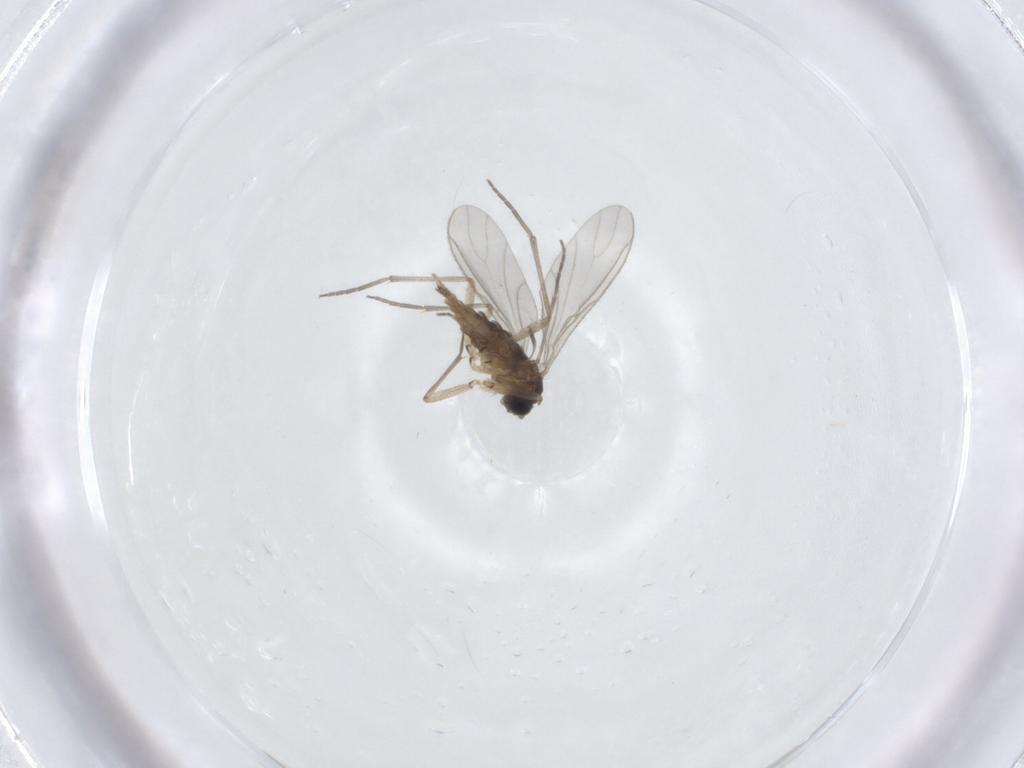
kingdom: Animalia
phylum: Arthropoda
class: Insecta
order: Diptera
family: Sciaridae
